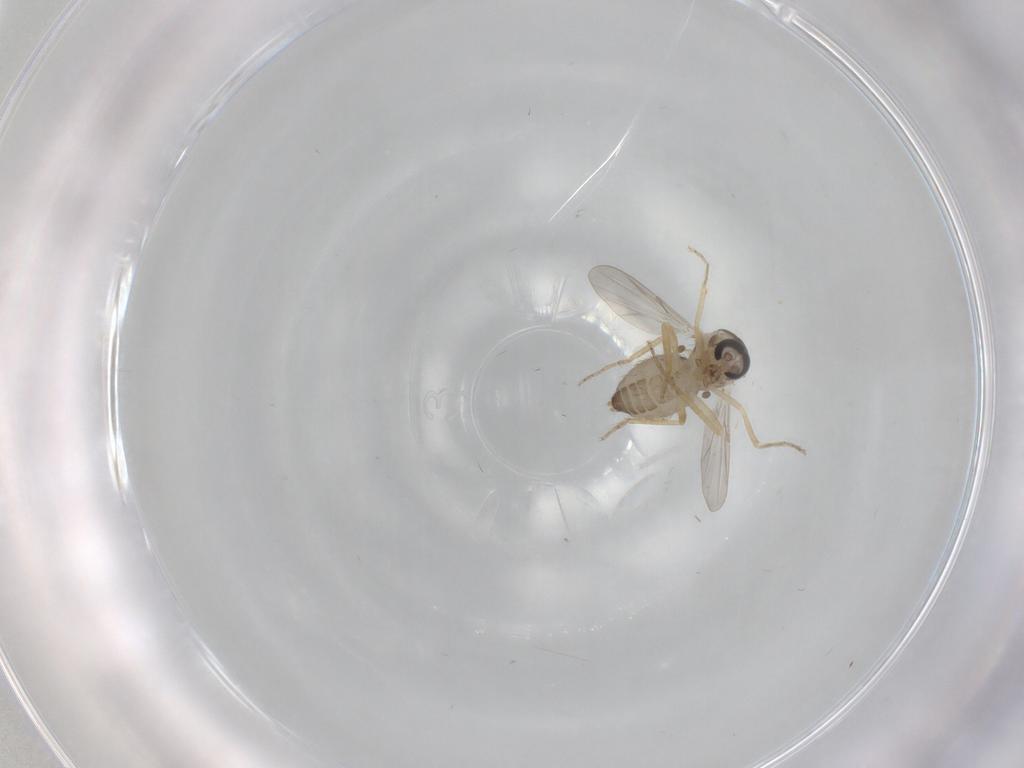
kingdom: Animalia
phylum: Arthropoda
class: Insecta
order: Diptera
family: Ceratopogonidae
